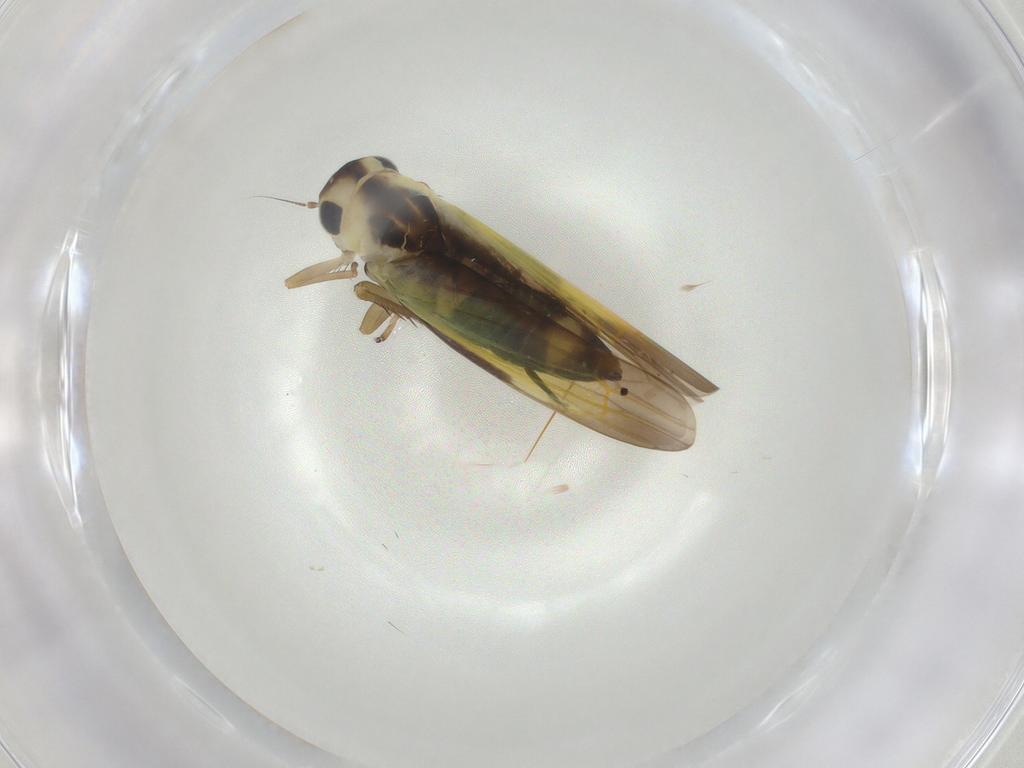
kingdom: Animalia
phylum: Arthropoda
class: Insecta
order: Hemiptera
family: Cicadellidae
